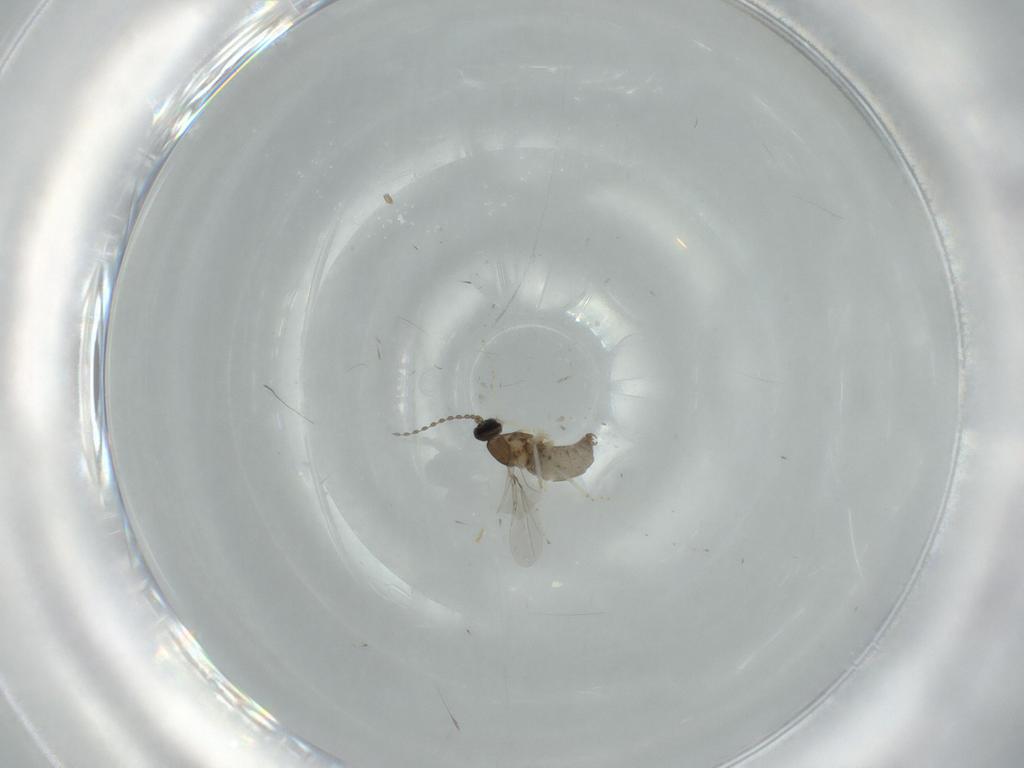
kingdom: Animalia
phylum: Arthropoda
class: Insecta
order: Diptera
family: Cecidomyiidae
